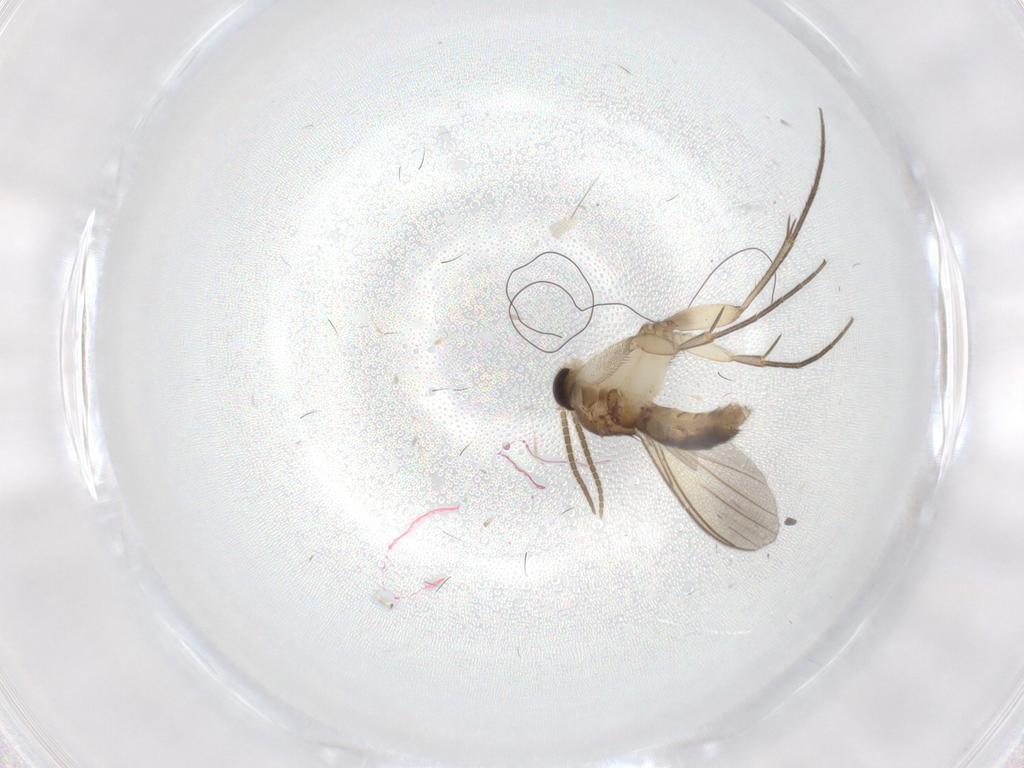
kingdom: Animalia
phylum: Arthropoda
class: Insecta
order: Diptera
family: Mycetophilidae
